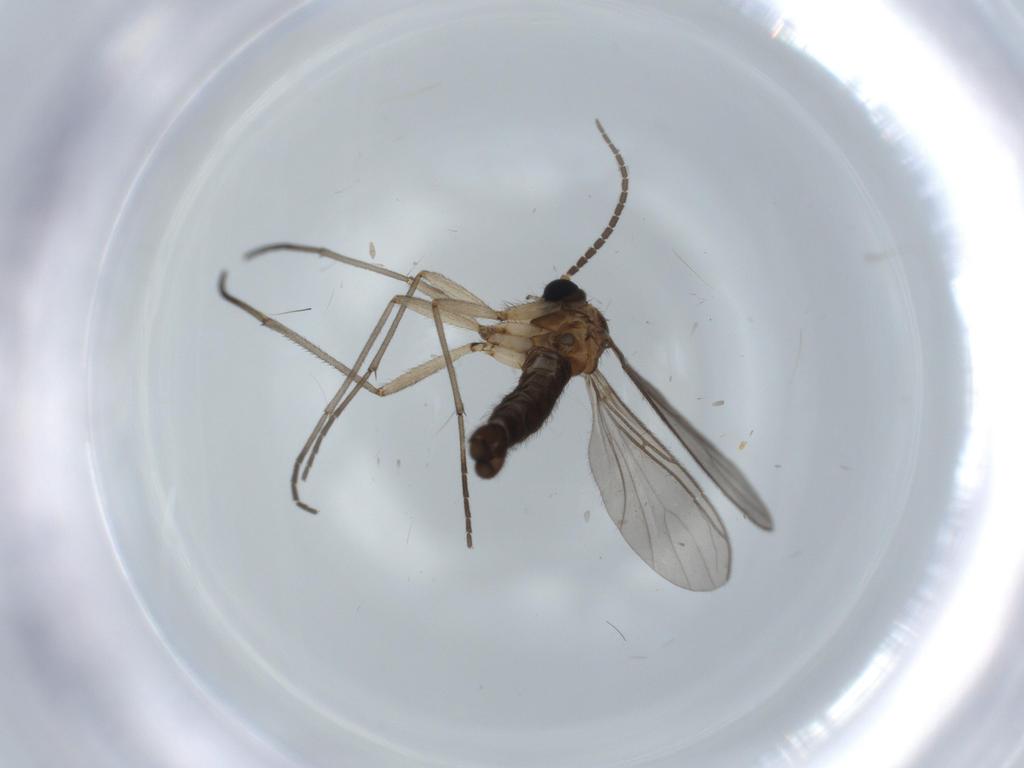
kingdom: Animalia
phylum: Arthropoda
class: Insecta
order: Diptera
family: Sciaridae
